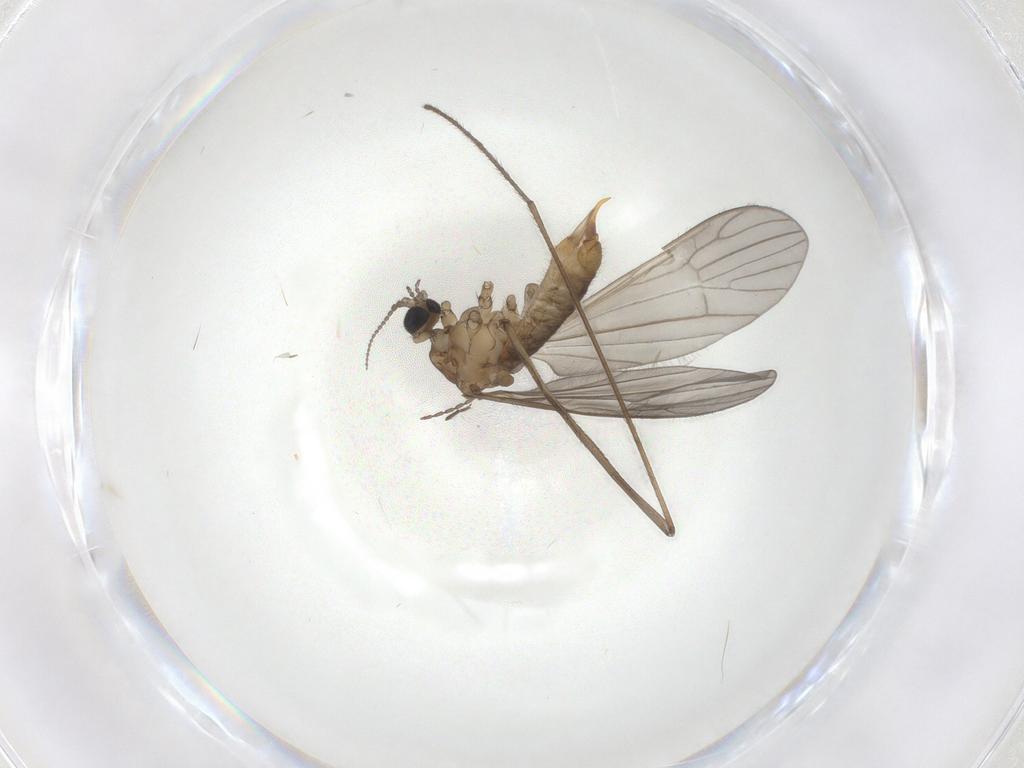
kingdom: Animalia
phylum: Arthropoda
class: Insecta
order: Diptera
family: Limoniidae
